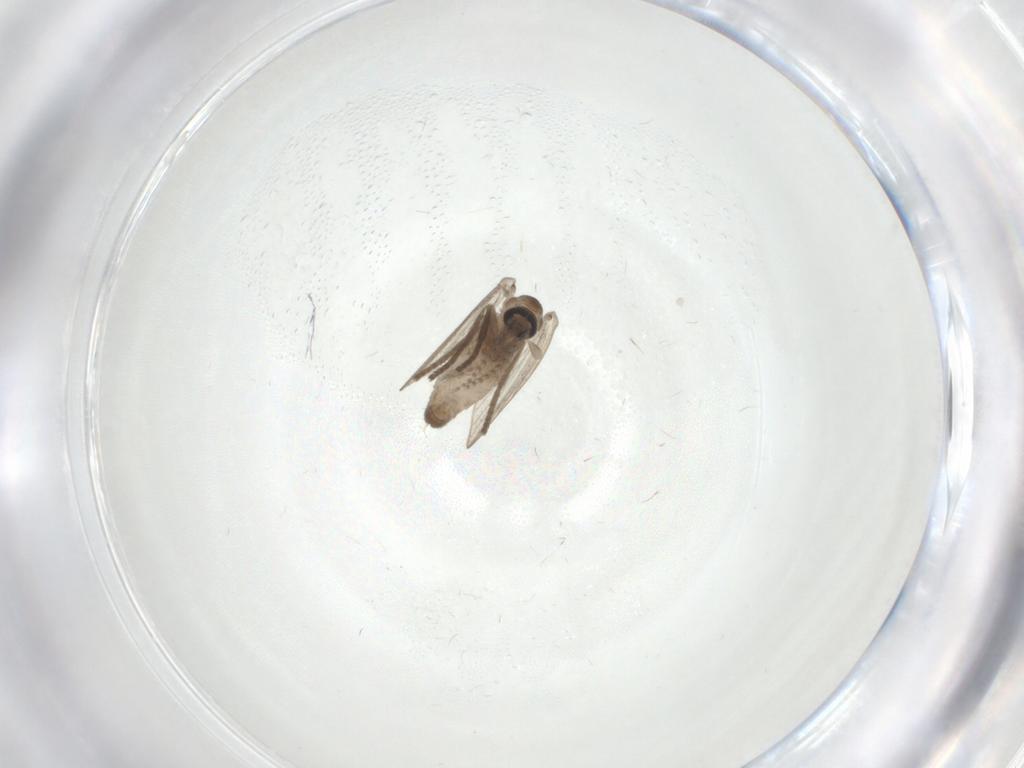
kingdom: Animalia
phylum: Arthropoda
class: Insecta
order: Diptera
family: Psychodidae
